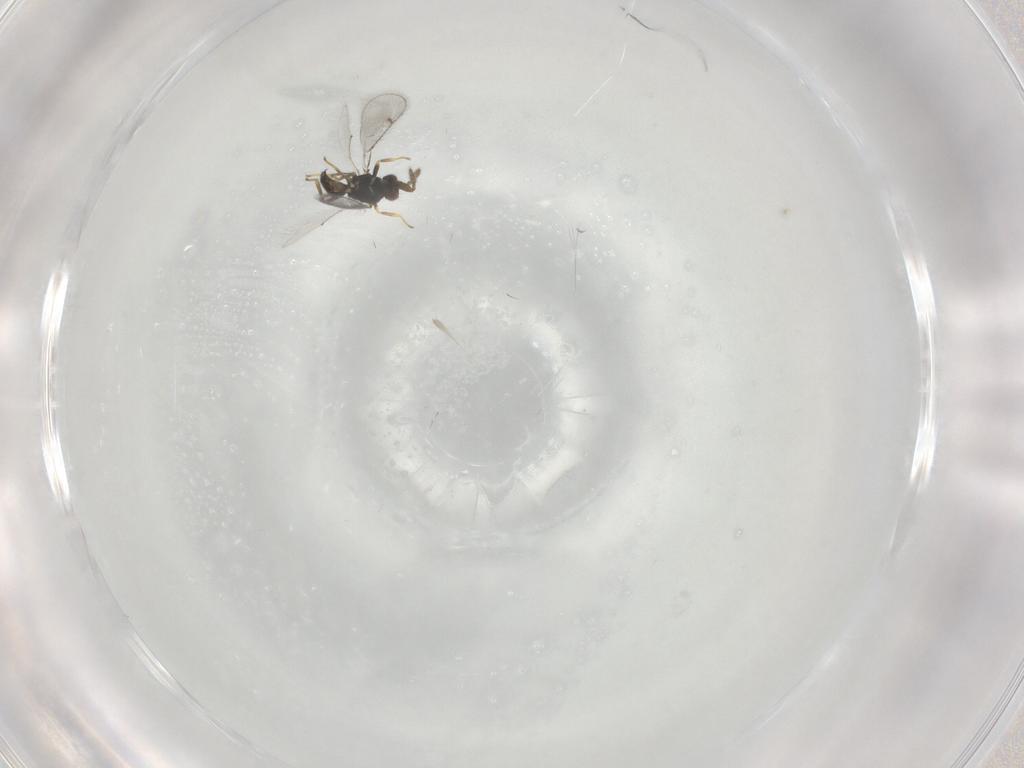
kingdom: Animalia
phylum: Arthropoda
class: Insecta
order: Hymenoptera
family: Eulophidae
